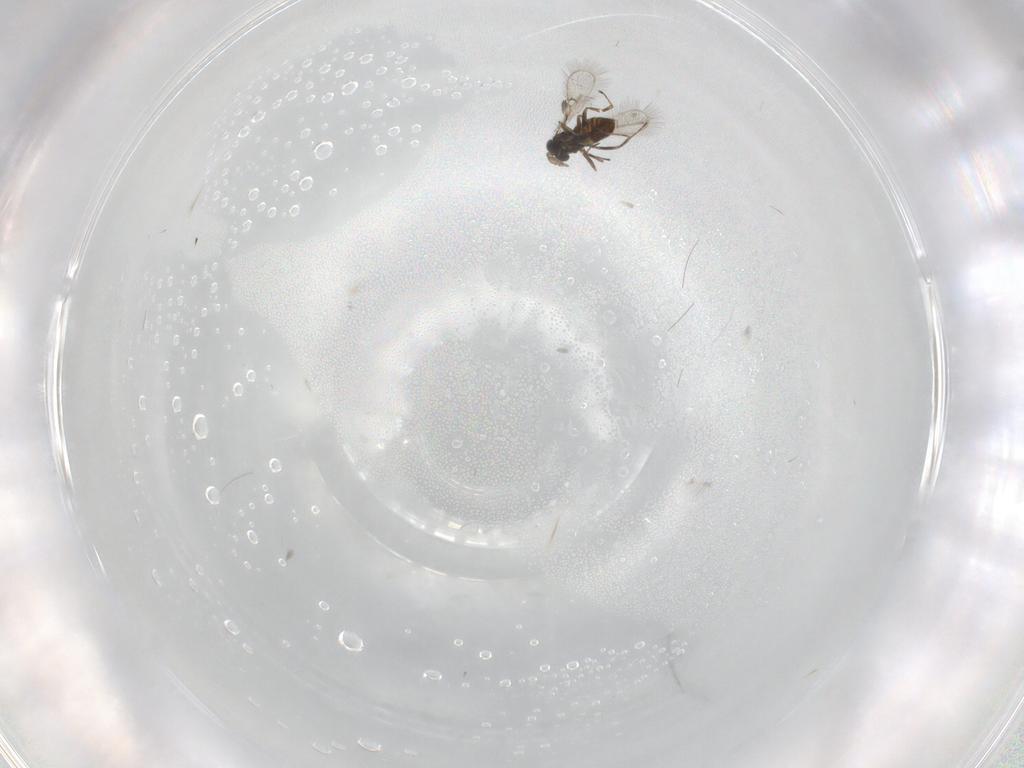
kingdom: Animalia
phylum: Arthropoda
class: Insecta
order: Hymenoptera
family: Trichogrammatidae
